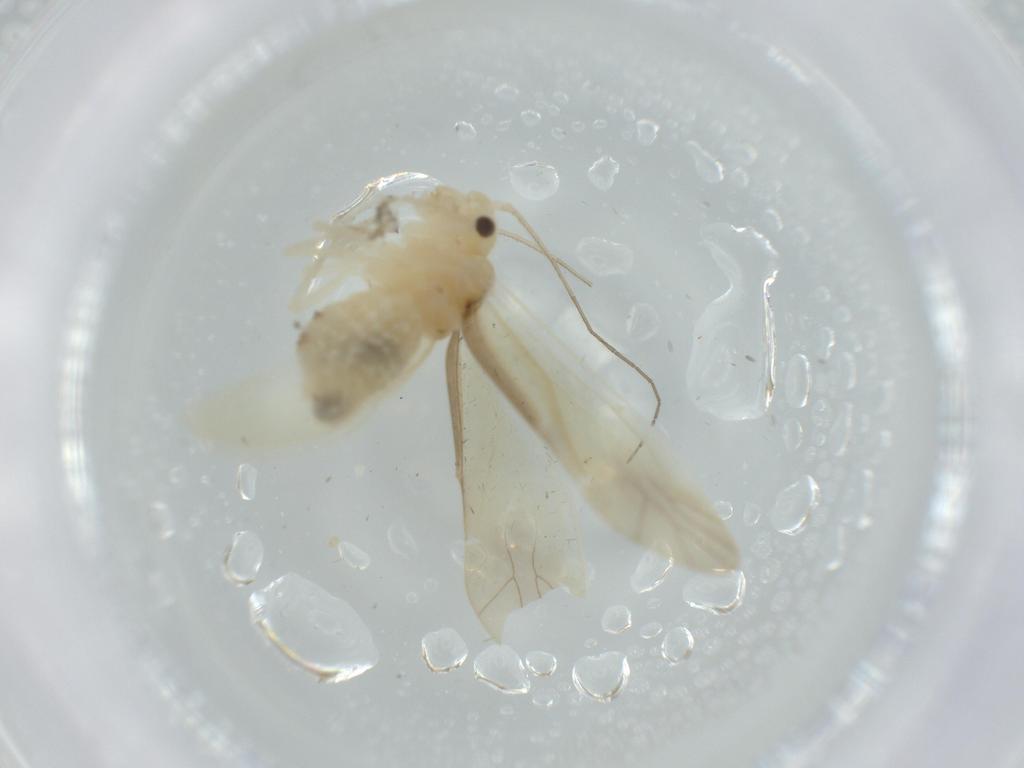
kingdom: Animalia
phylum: Arthropoda
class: Insecta
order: Psocodea
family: Caeciliusidae
